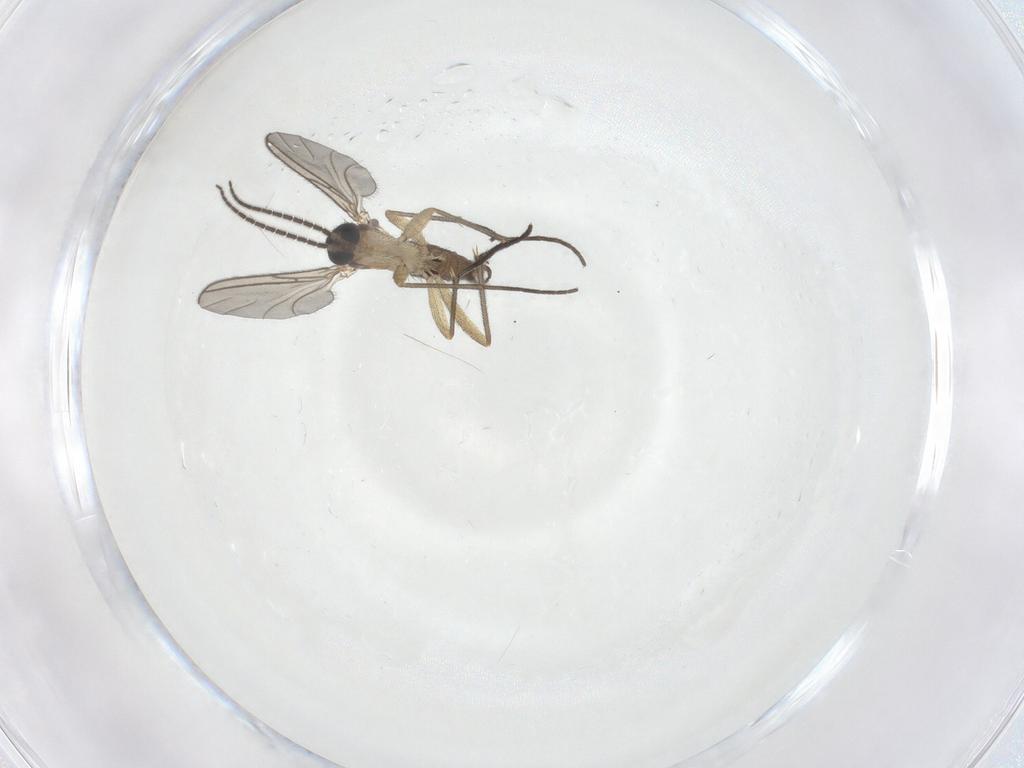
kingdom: Animalia
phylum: Arthropoda
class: Insecta
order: Diptera
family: Sciaridae
